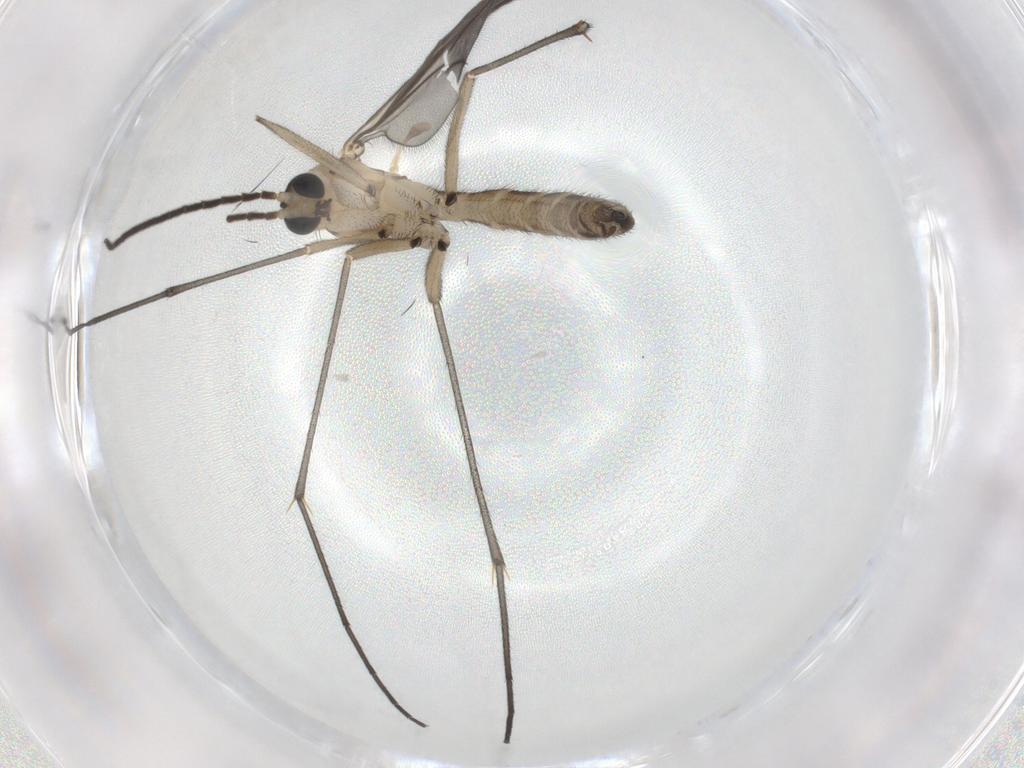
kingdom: Animalia
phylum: Arthropoda
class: Insecta
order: Diptera
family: Sciaridae
